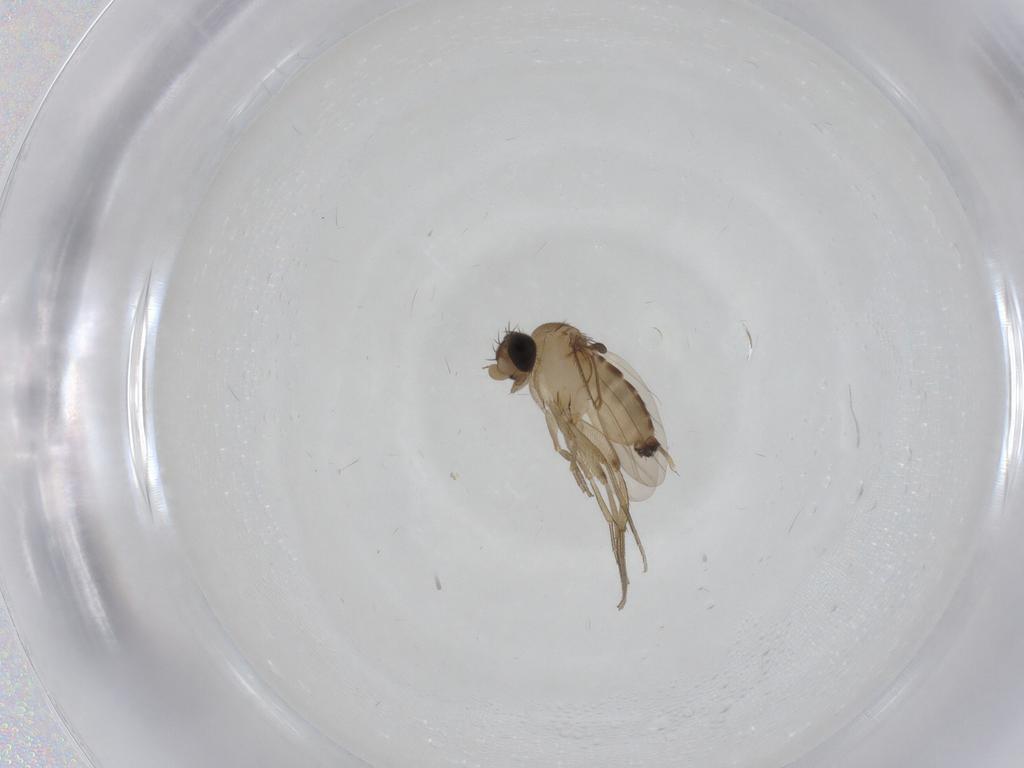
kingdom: Animalia
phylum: Arthropoda
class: Insecta
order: Diptera
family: Phoridae
